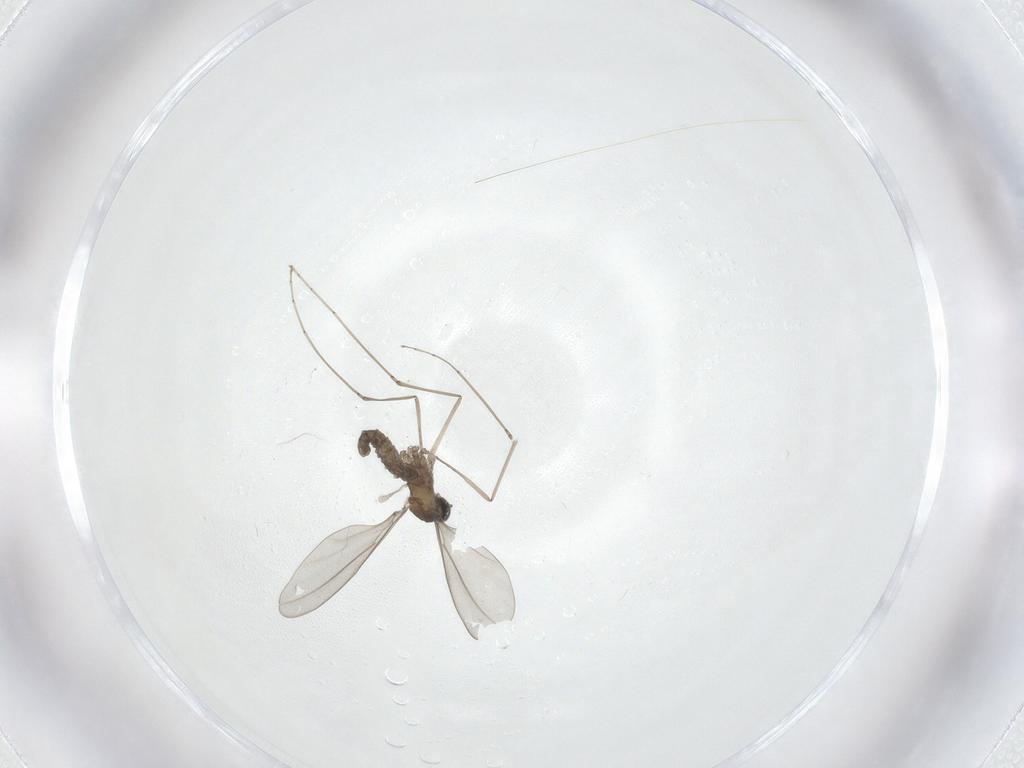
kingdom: Animalia
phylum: Arthropoda
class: Insecta
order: Diptera
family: Cecidomyiidae
